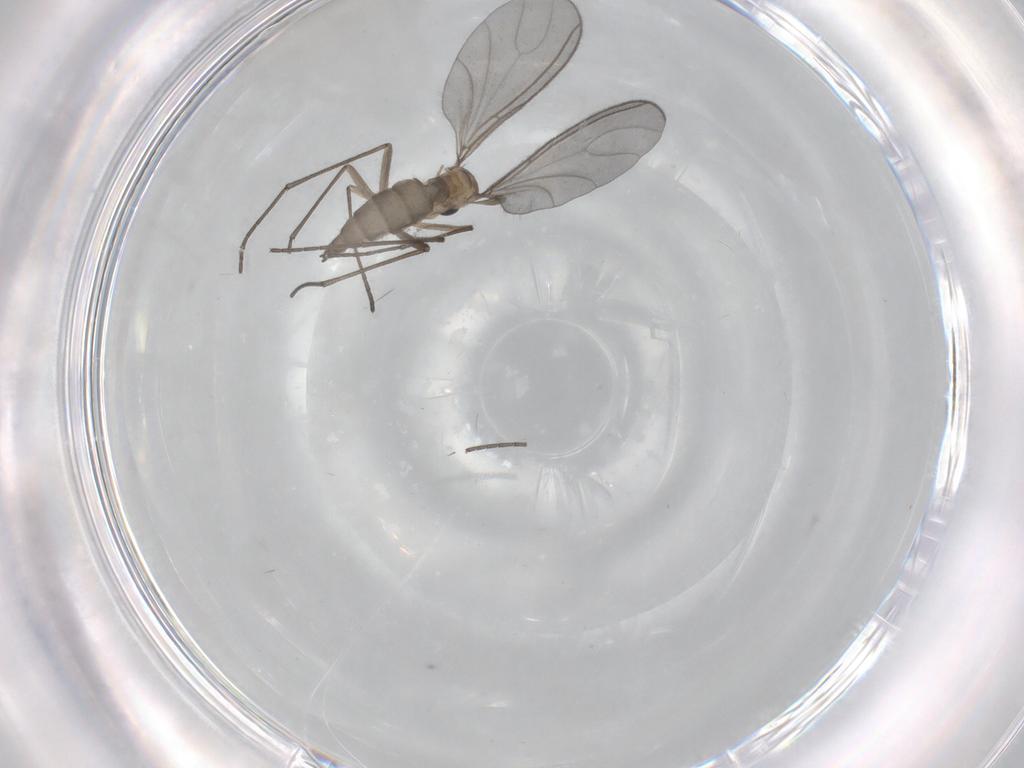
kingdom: Animalia
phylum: Arthropoda
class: Insecta
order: Diptera
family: Sciaridae
